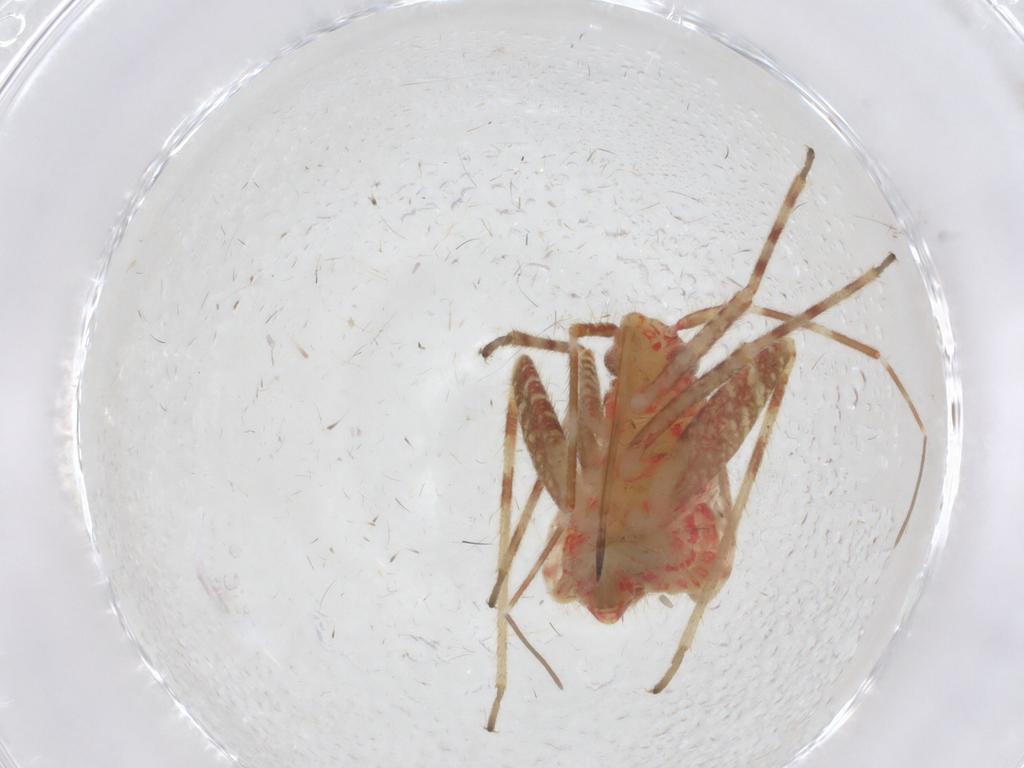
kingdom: Animalia
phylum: Arthropoda
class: Insecta
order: Hemiptera
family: Miridae
